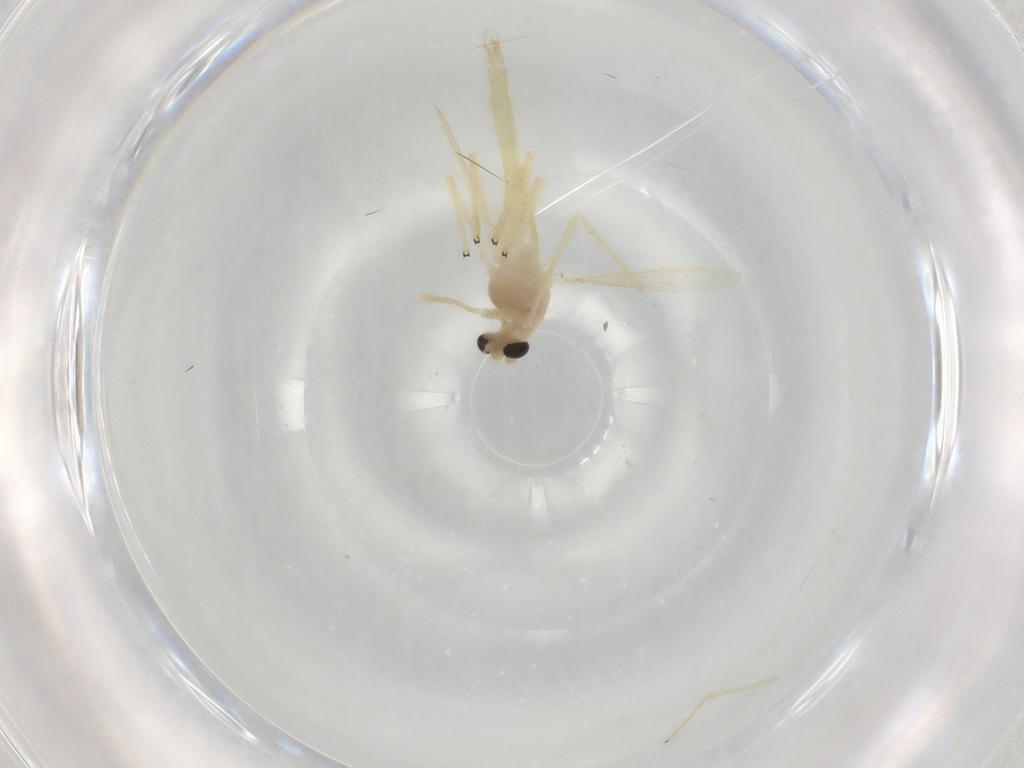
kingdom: Animalia
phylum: Arthropoda
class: Insecta
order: Diptera
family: Chironomidae
